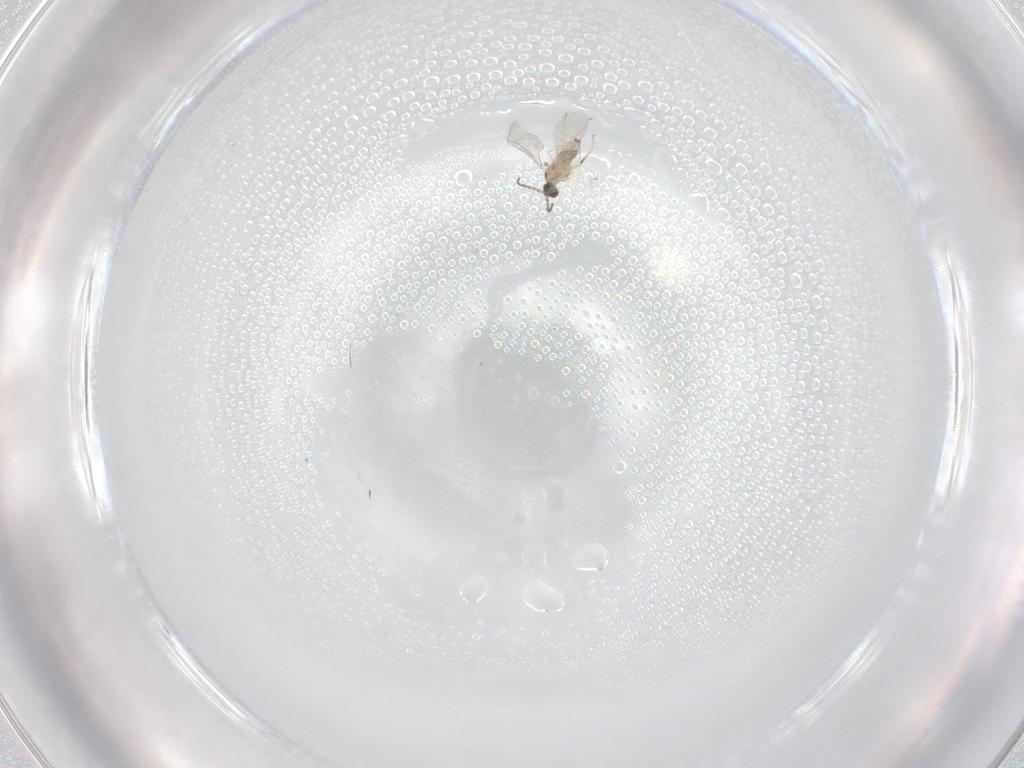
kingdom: Animalia
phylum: Arthropoda
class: Insecta
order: Diptera
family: Cecidomyiidae
